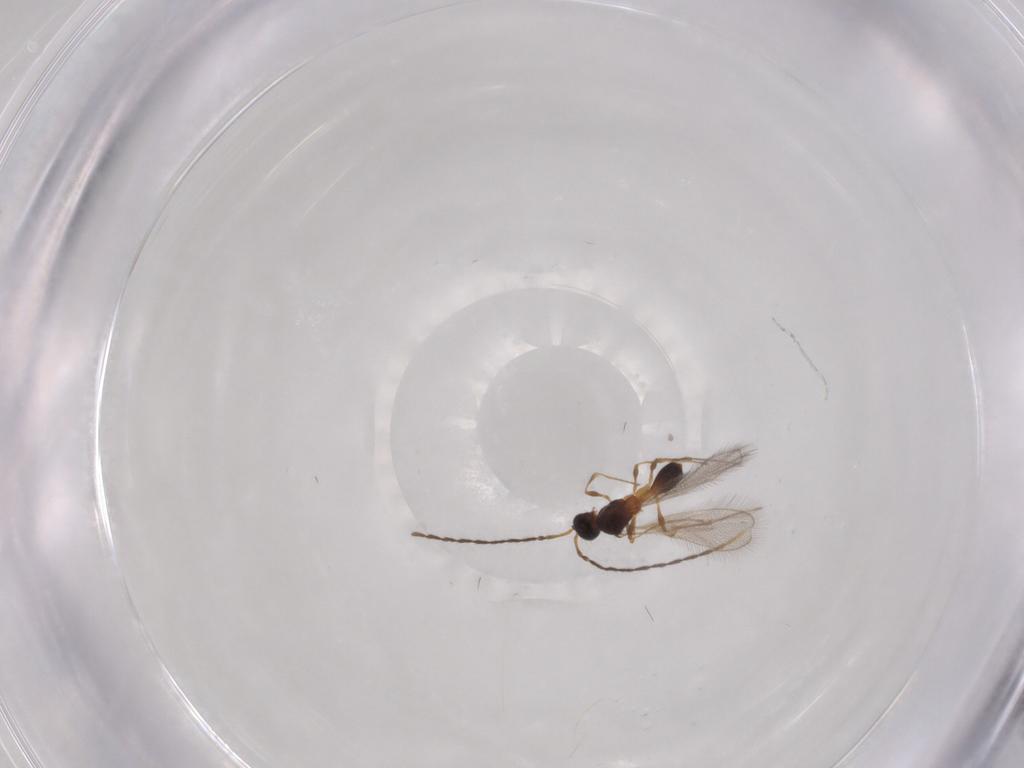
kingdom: Animalia
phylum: Arthropoda
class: Insecta
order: Hymenoptera
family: Diapriidae
